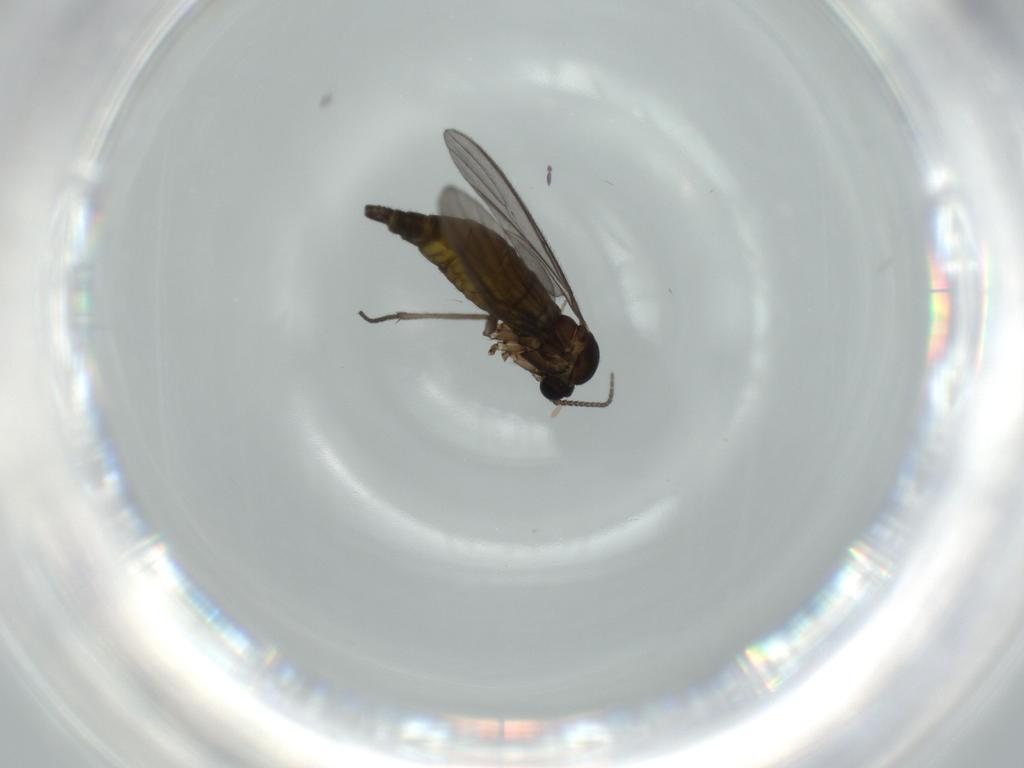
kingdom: Animalia
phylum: Arthropoda
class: Insecta
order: Diptera
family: Sciaridae
